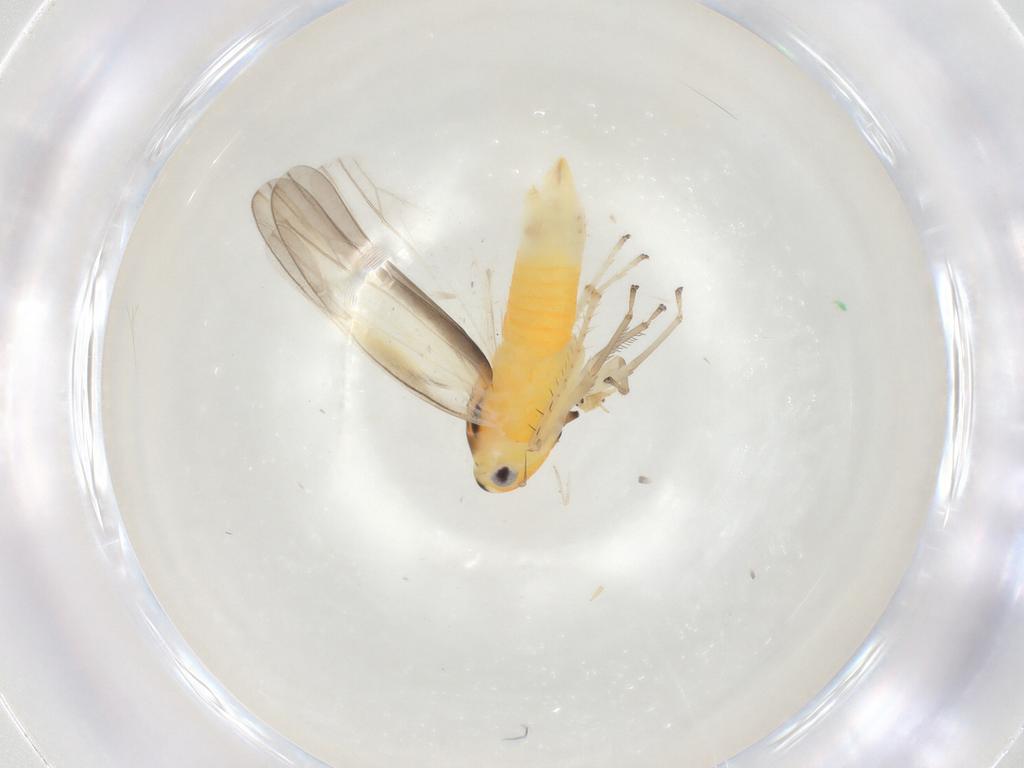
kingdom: Animalia
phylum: Arthropoda
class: Insecta
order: Hemiptera
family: Cicadellidae
